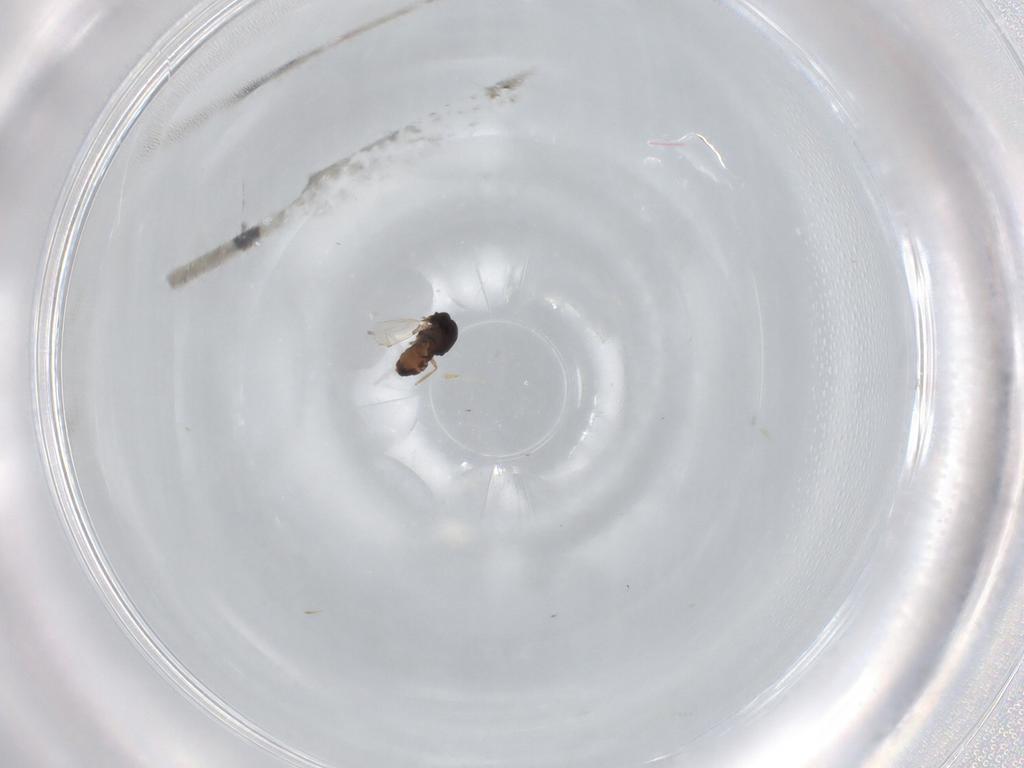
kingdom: Animalia
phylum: Arthropoda
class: Insecta
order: Diptera
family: Ceratopogonidae
